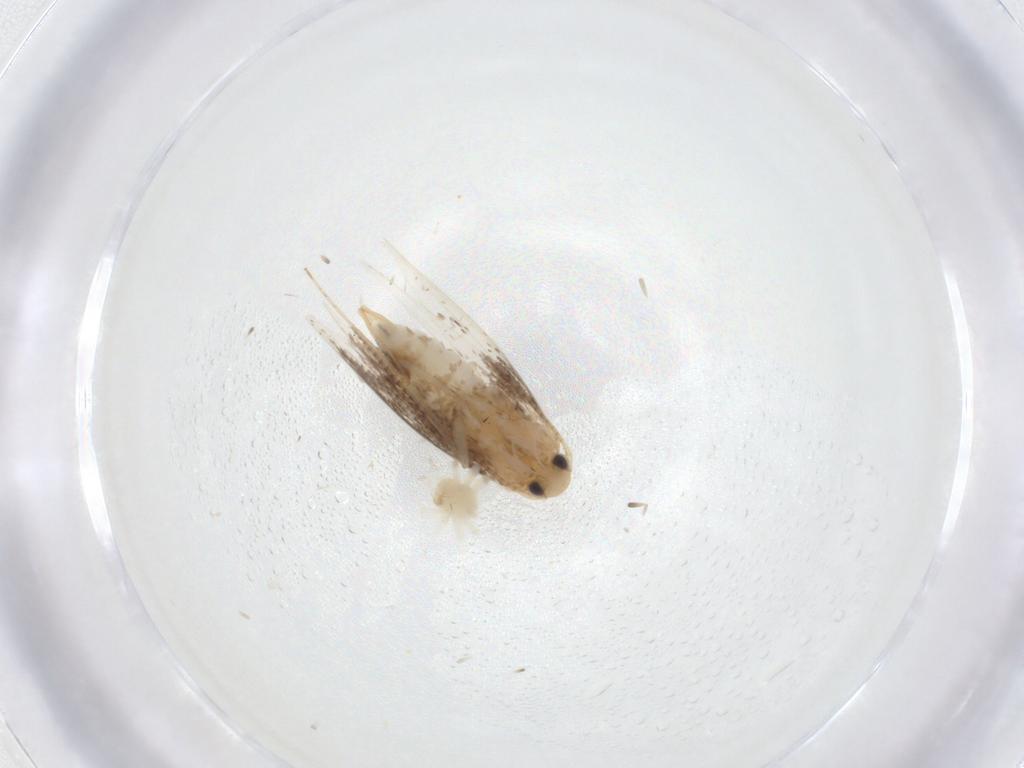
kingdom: Animalia
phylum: Arthropoda
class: Insecta
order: Lepidoptera
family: Gracillariidae
